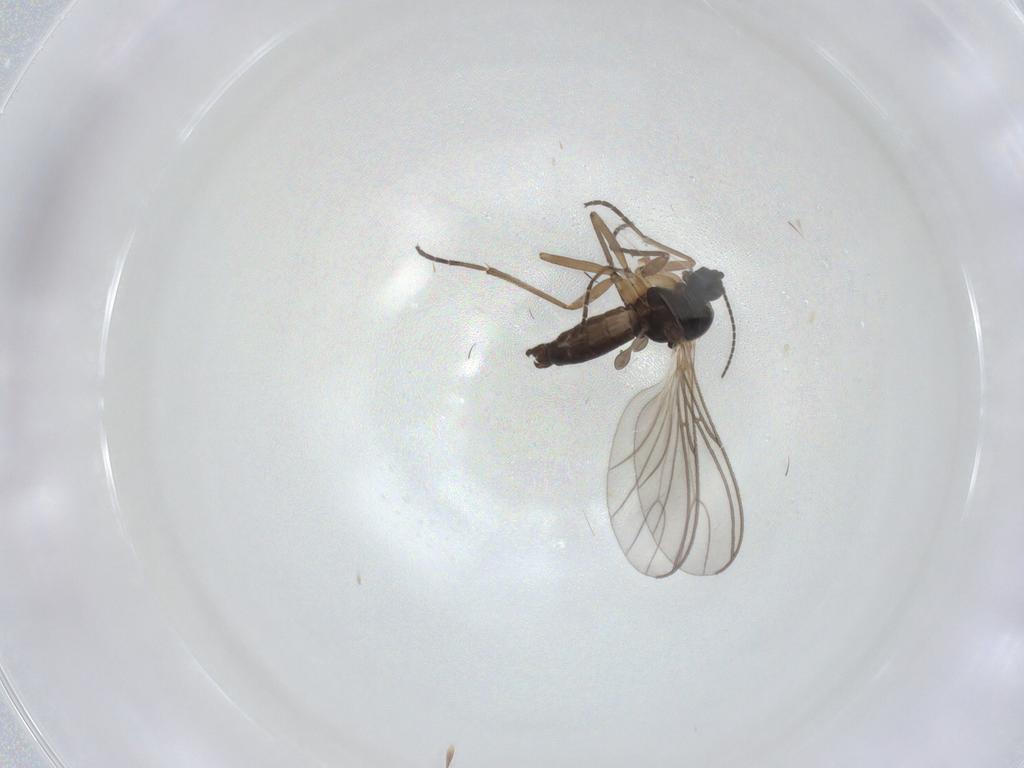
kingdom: Animalia
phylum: Arthropoda
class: Insecta
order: Diptera
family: Sciaridae
